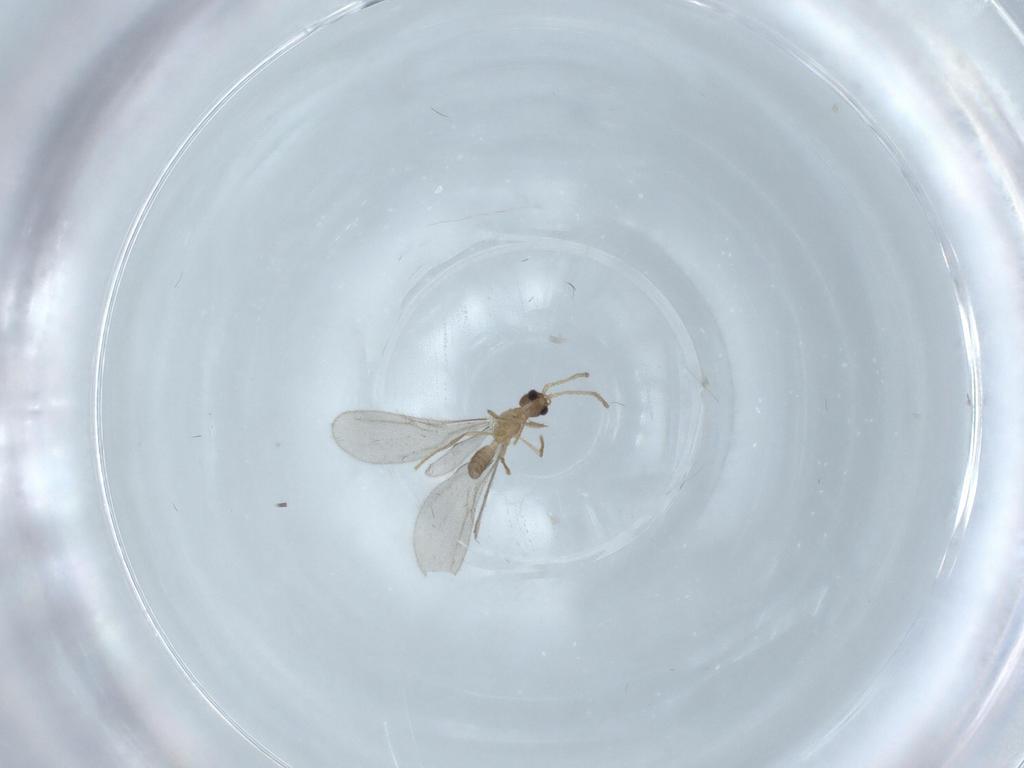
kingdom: Animalia
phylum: Arthropoda
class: Insecta
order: Hymenoptera
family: Formicidae
